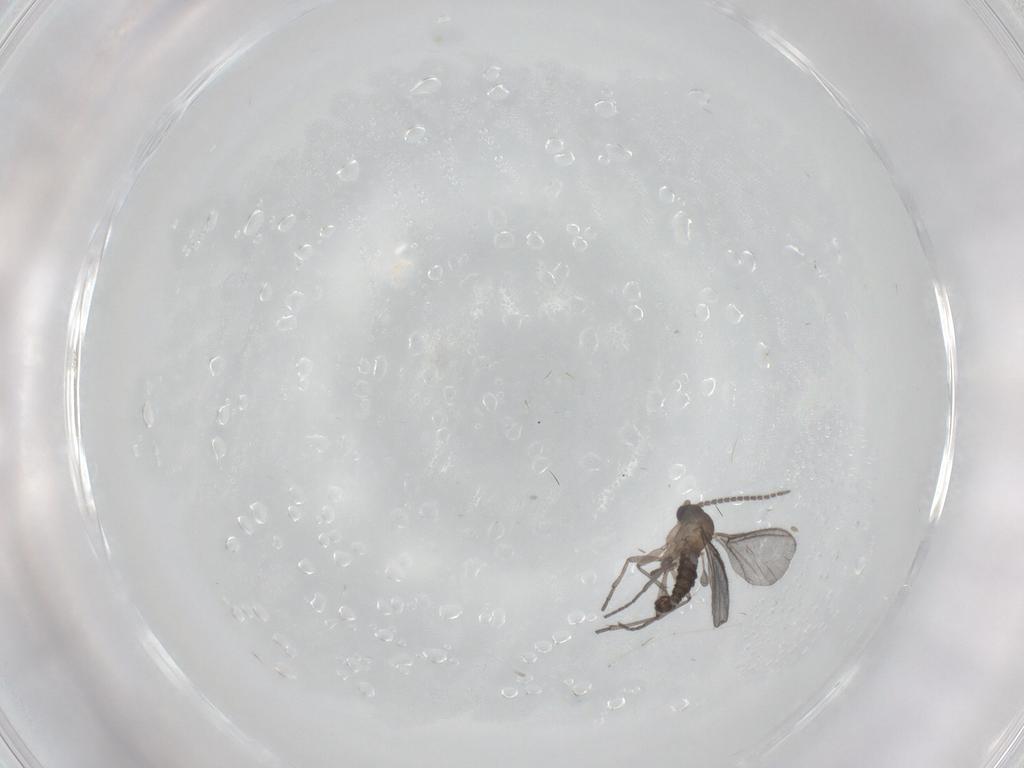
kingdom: Animalia
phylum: Arthropoda
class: Insecta
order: Diptera
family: Sciaridae
